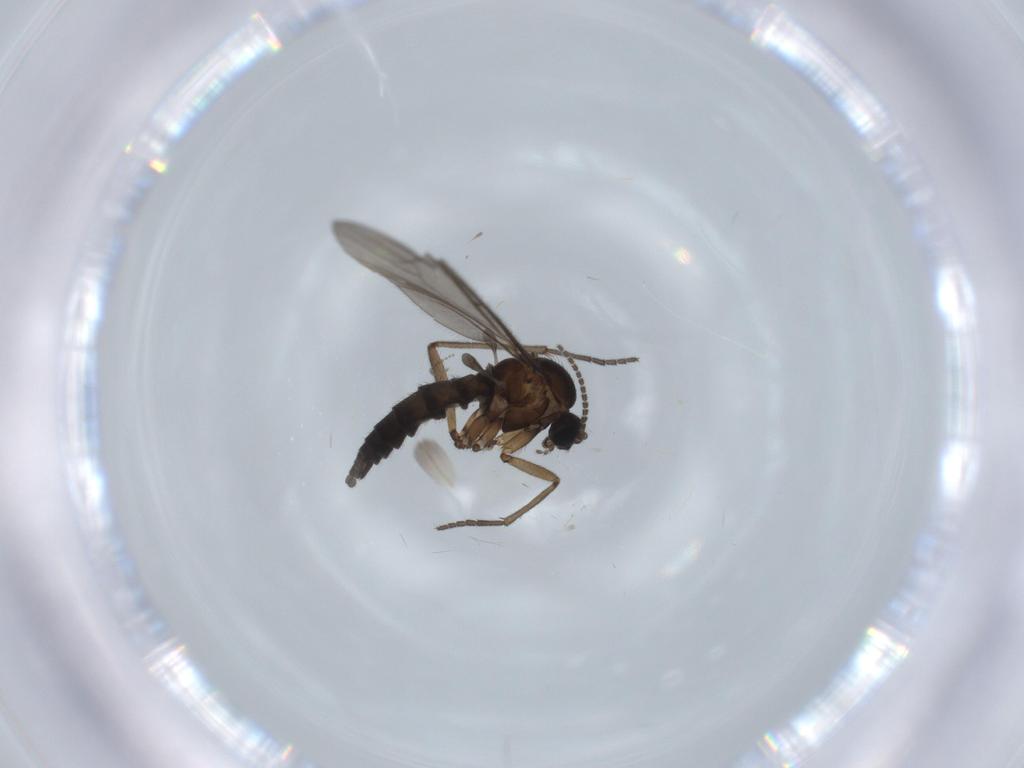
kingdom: Animalia
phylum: Arthropoda
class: Insecta
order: Diptera
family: Sciaridae
